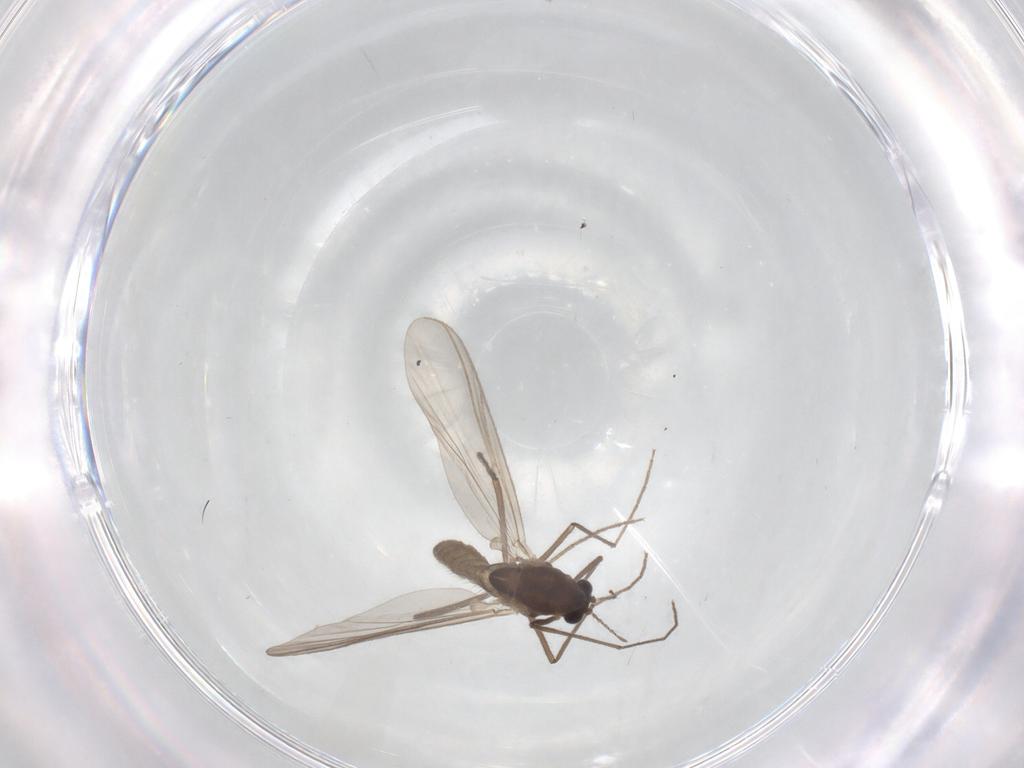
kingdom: Animalia
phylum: Arthropoda
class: Insecta
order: Diptera
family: Chironomidae
